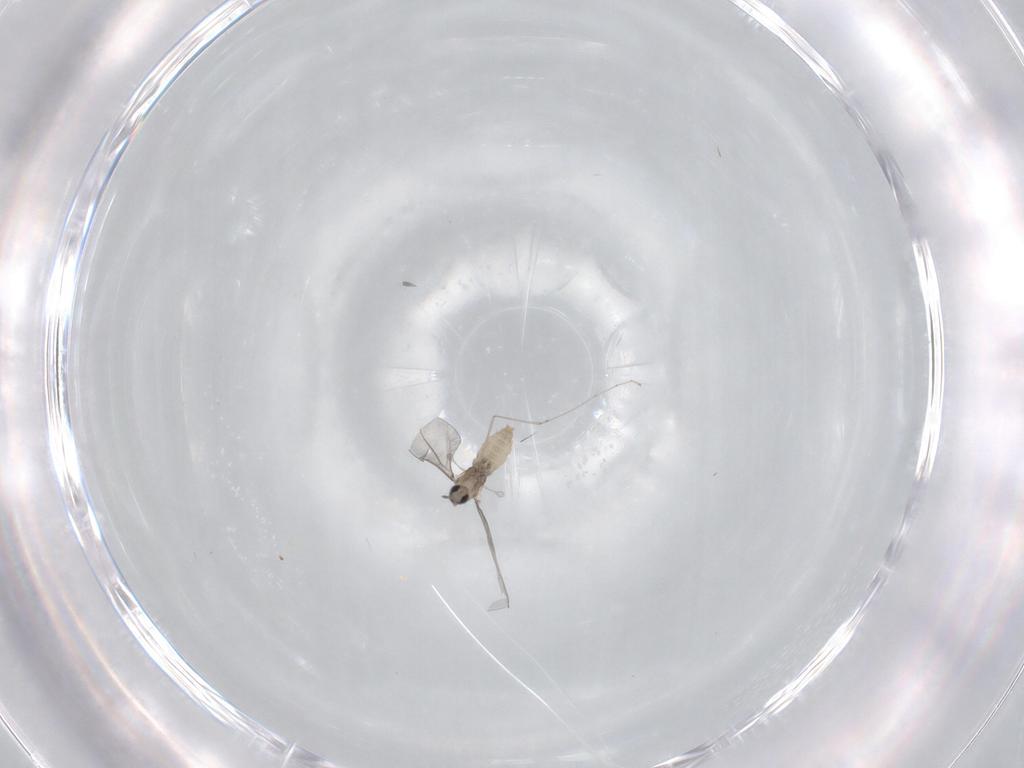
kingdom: Animalia
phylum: Arthropoda
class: Insecta
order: Diptera
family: Cecidomyiidae
